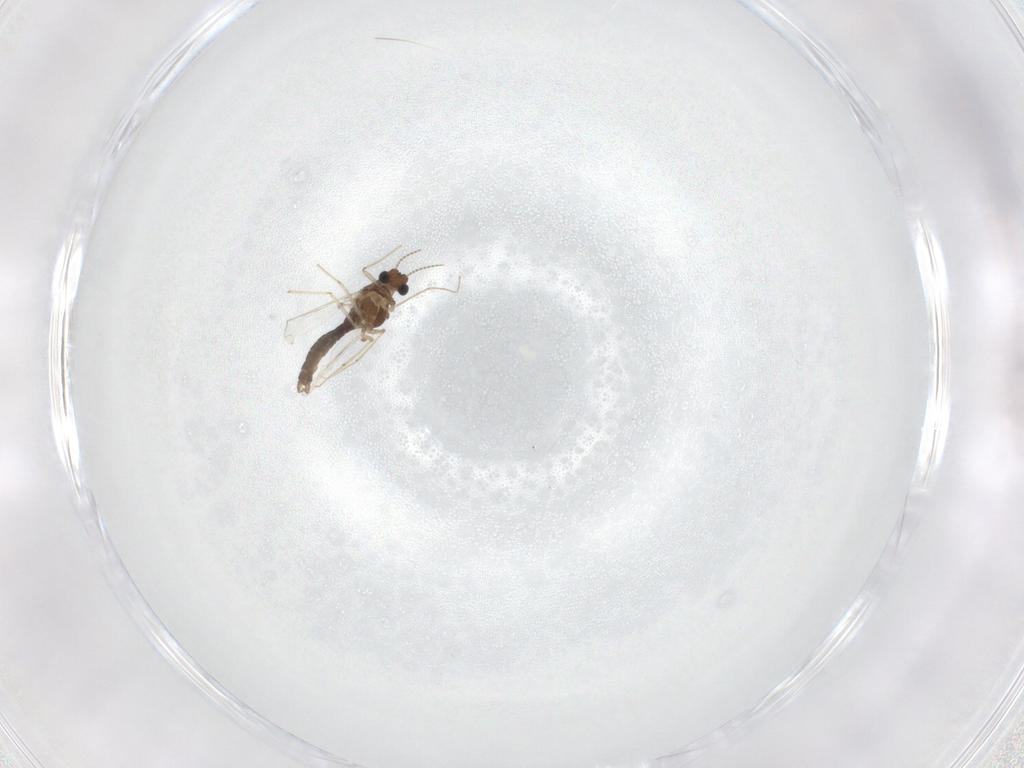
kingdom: Animalia
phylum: Arthropoda
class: Insecta
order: Diptera
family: Chironomidae
